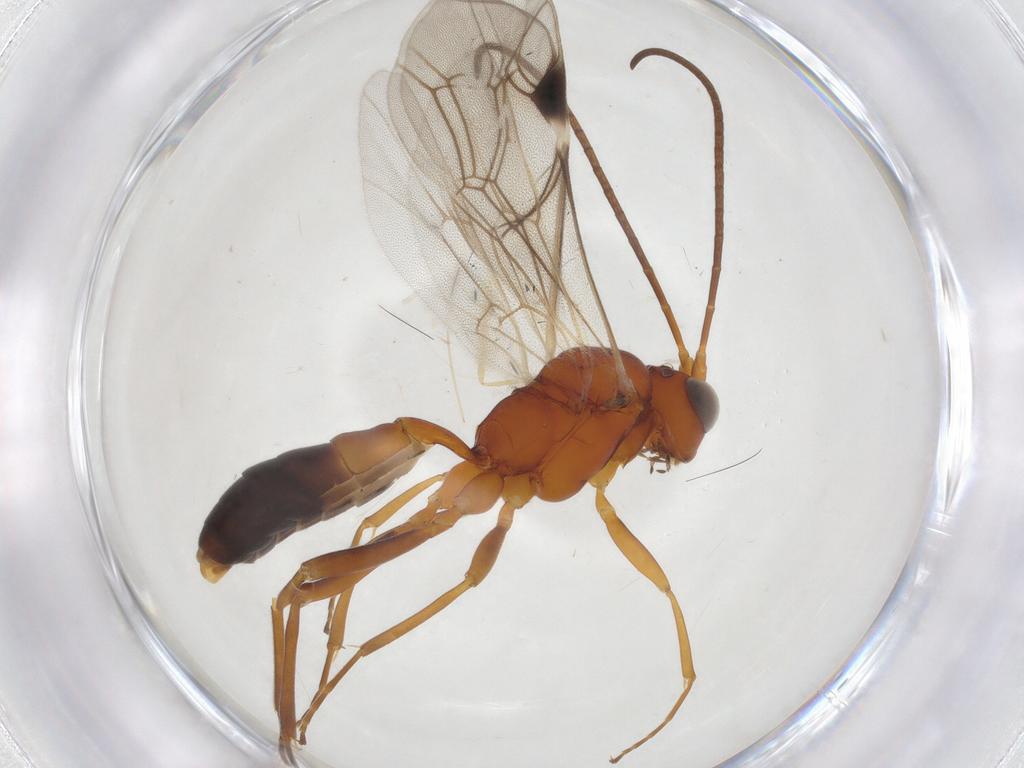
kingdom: Animalia
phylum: Arthropoda
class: Insecta
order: Hymenoptera
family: Ichneumonidae
